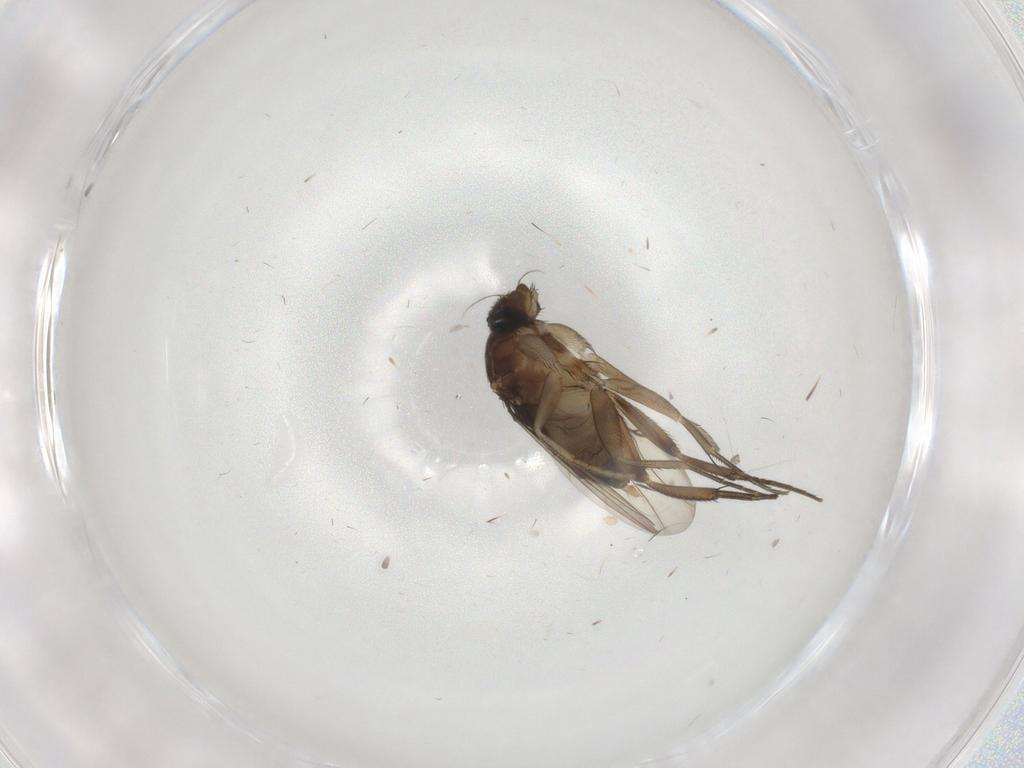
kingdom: Animalia
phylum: Arthropoda
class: Insecta
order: Diptera
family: Phoridae
